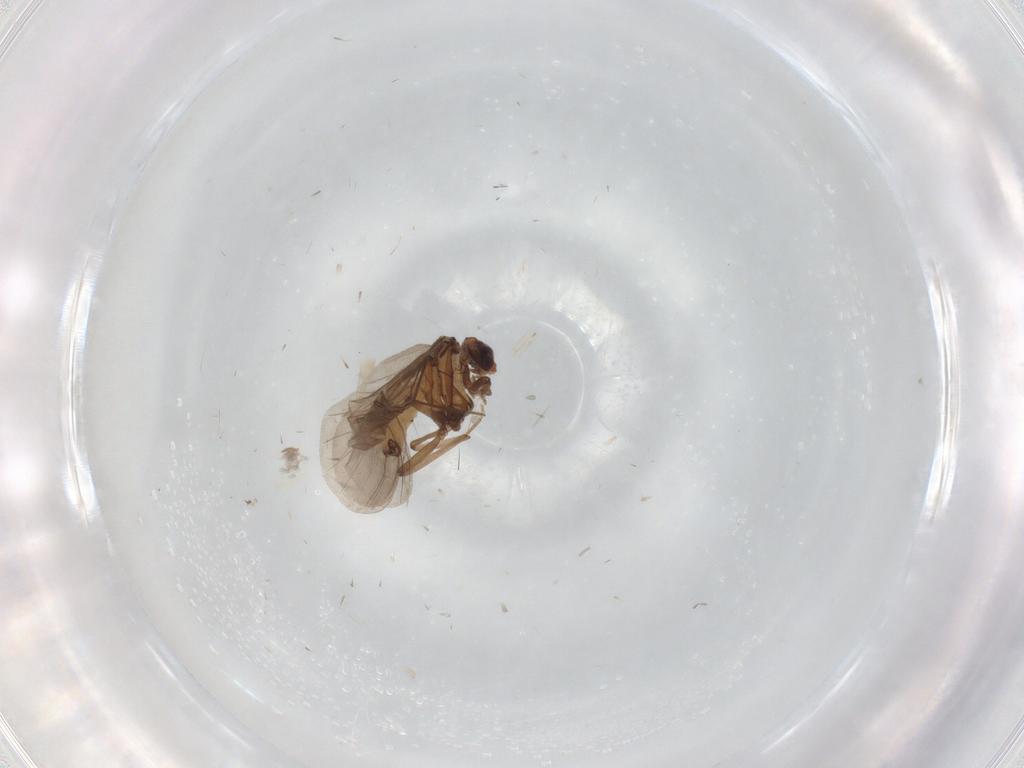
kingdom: Animalia
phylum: Arthropoda
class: Insecta
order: Neuroptera
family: Coniopterygidae
